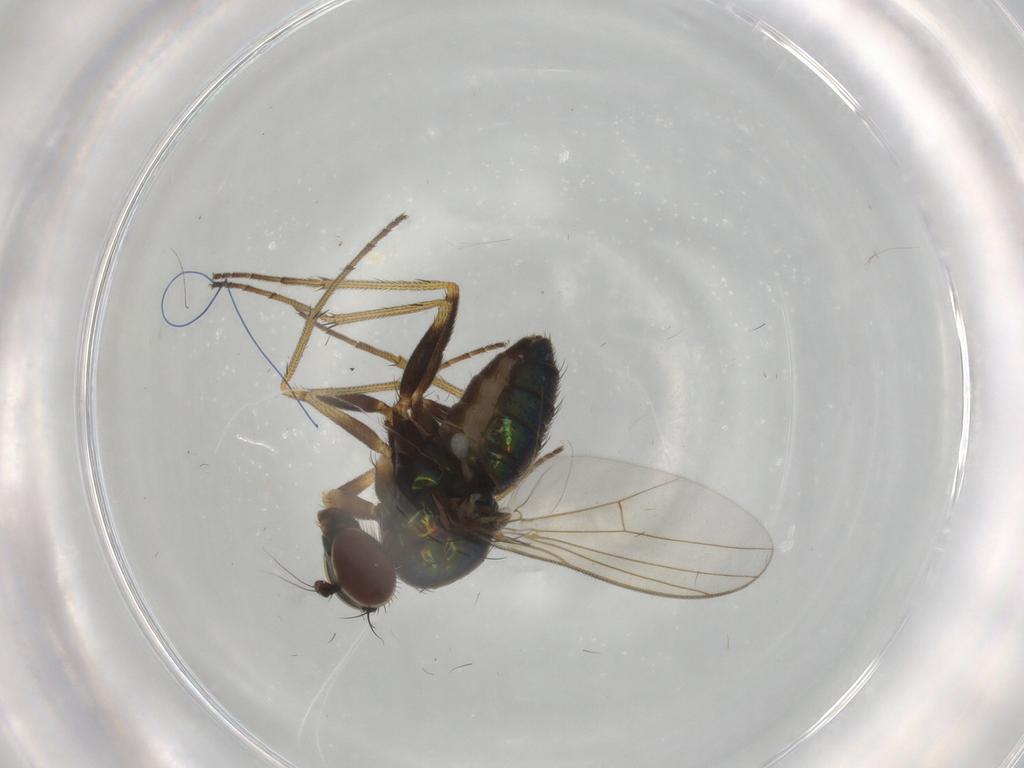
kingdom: Animalia
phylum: Arthropoda
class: Insecta
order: Diptera
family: Dolichopodidae
